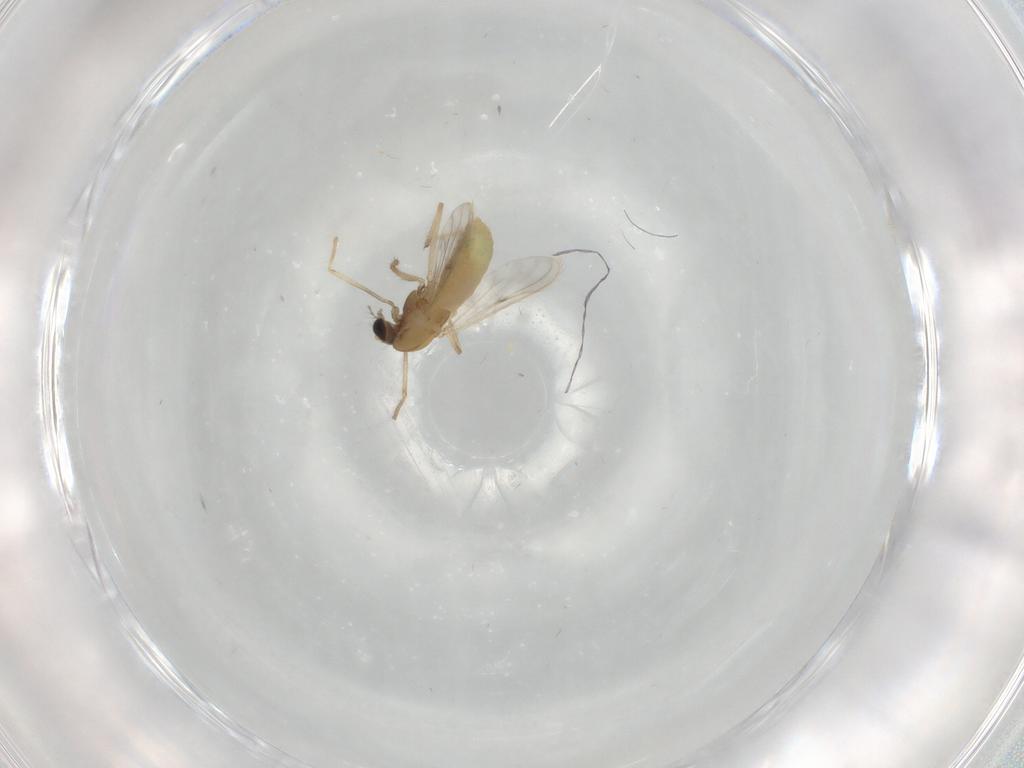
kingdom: Animalia
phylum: Arthropoda
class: Insecta
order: Diptera
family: Chironomidae
